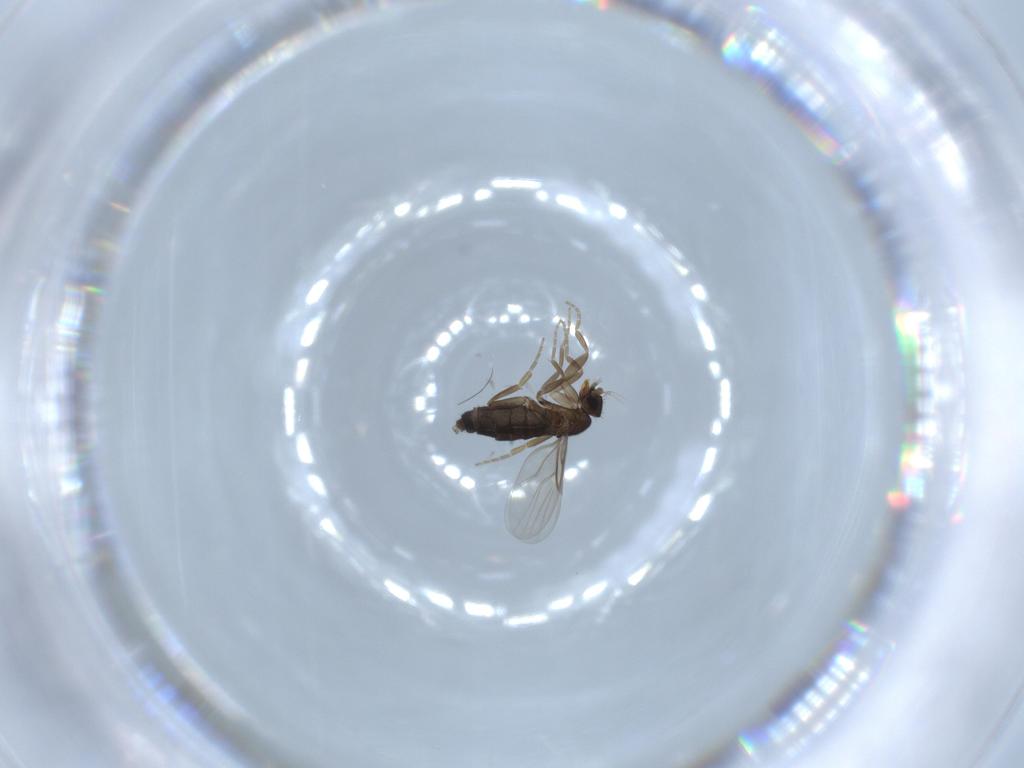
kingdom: Animalia
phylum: Arthropoda
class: Insecta
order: Diptera
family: Phoridae
